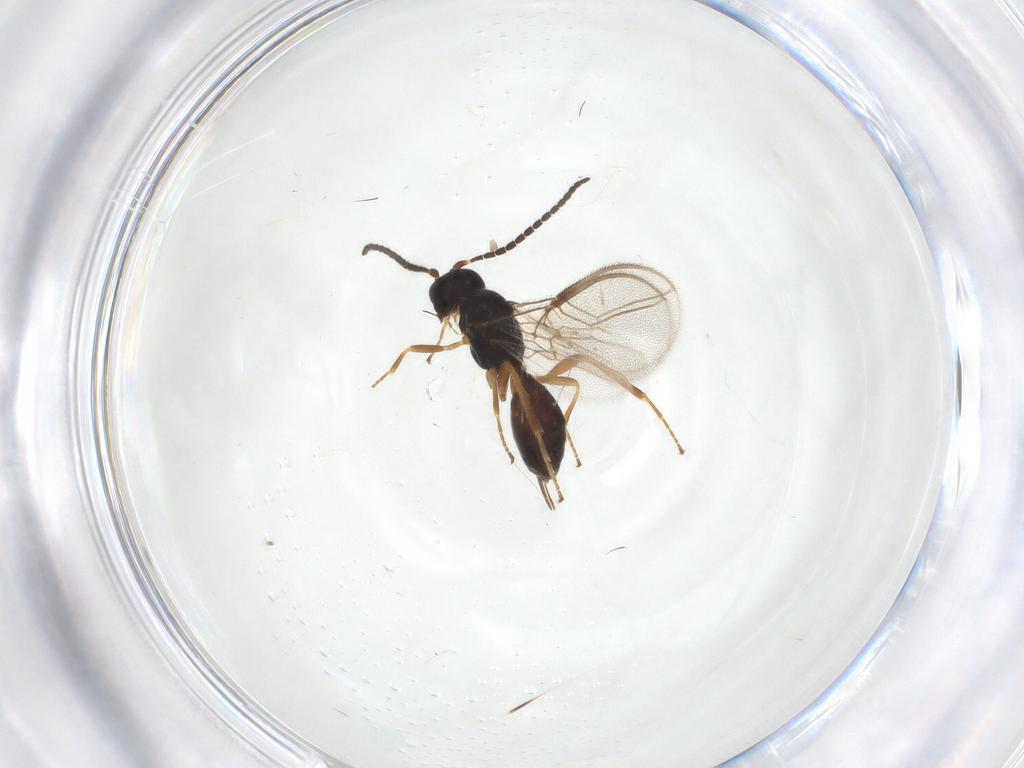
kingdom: Animalia
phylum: Arthropoda
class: Insecta
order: Hymenoptera
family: Braconidae
